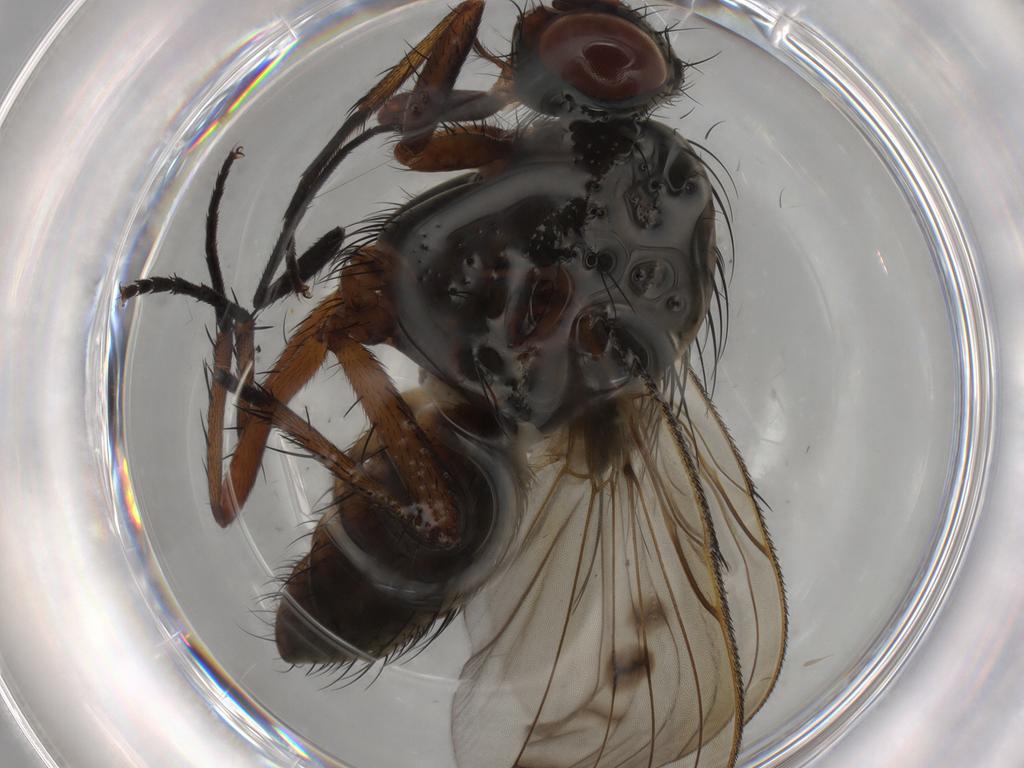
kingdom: Animalia
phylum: Arthropoda
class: Insecta
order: Diptera
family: Anthomyiidae
